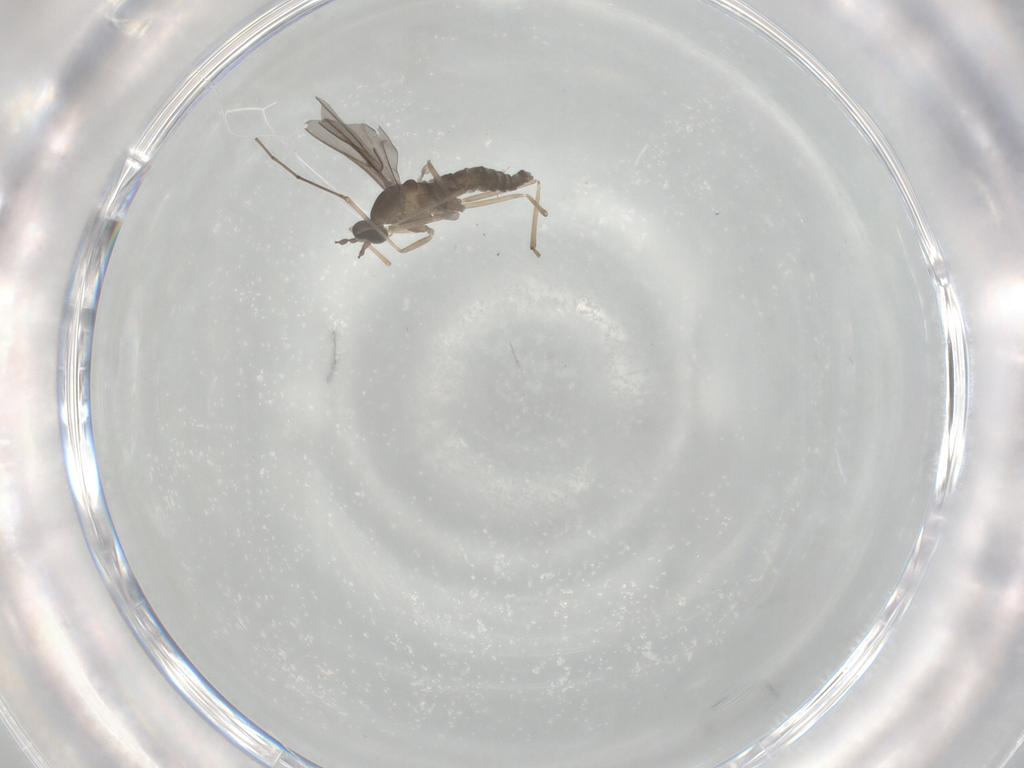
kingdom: Animalia
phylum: Arthropoda
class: Insecta
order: Diptera
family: Cecidomyiidae
